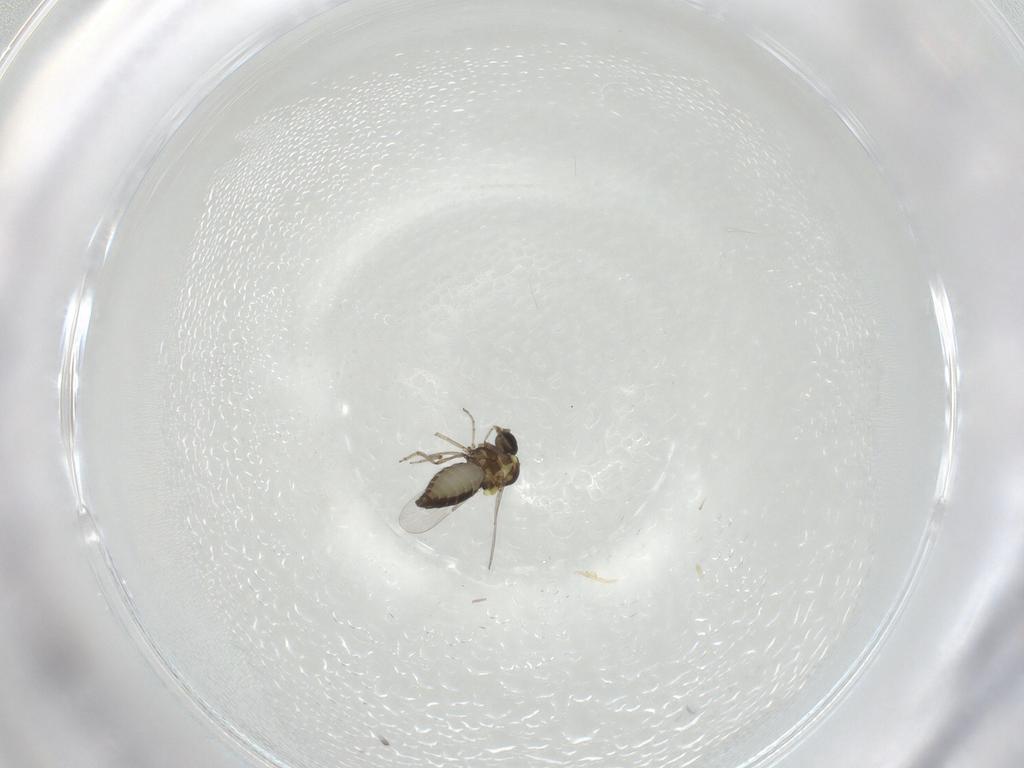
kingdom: Animalia
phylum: Arthropoda
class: Insecta
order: Diptera
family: Ceratopogonidae
